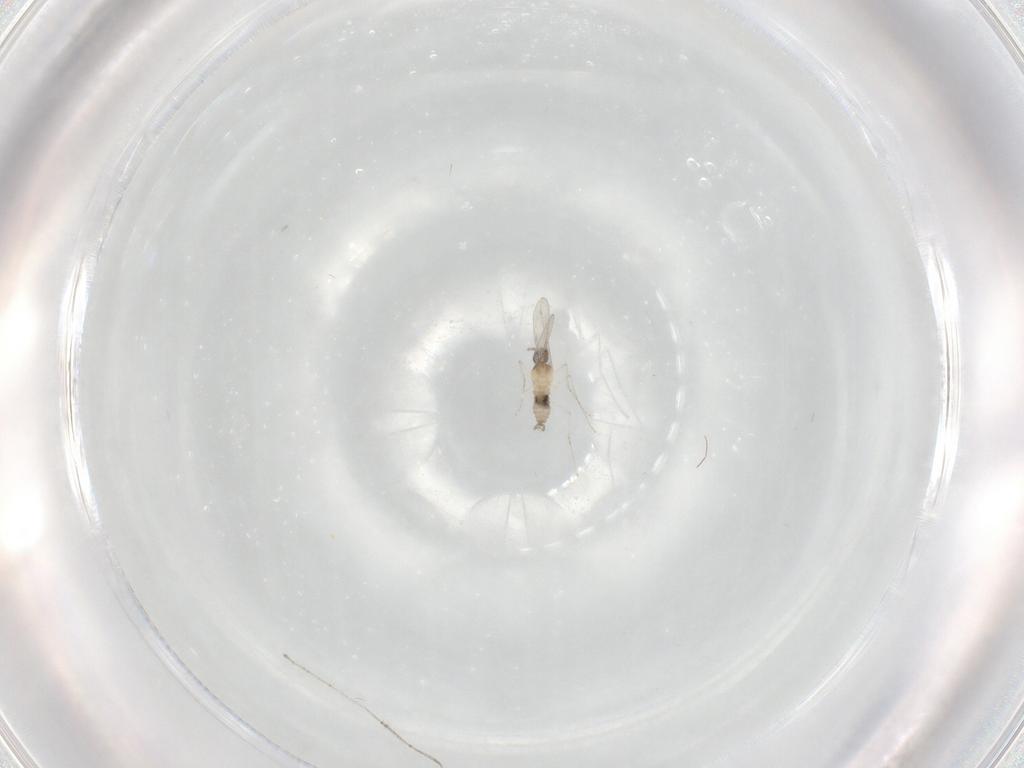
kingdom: Animalia
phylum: Arthropoda
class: Insecta
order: Diptera
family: Cecidomyiidae
